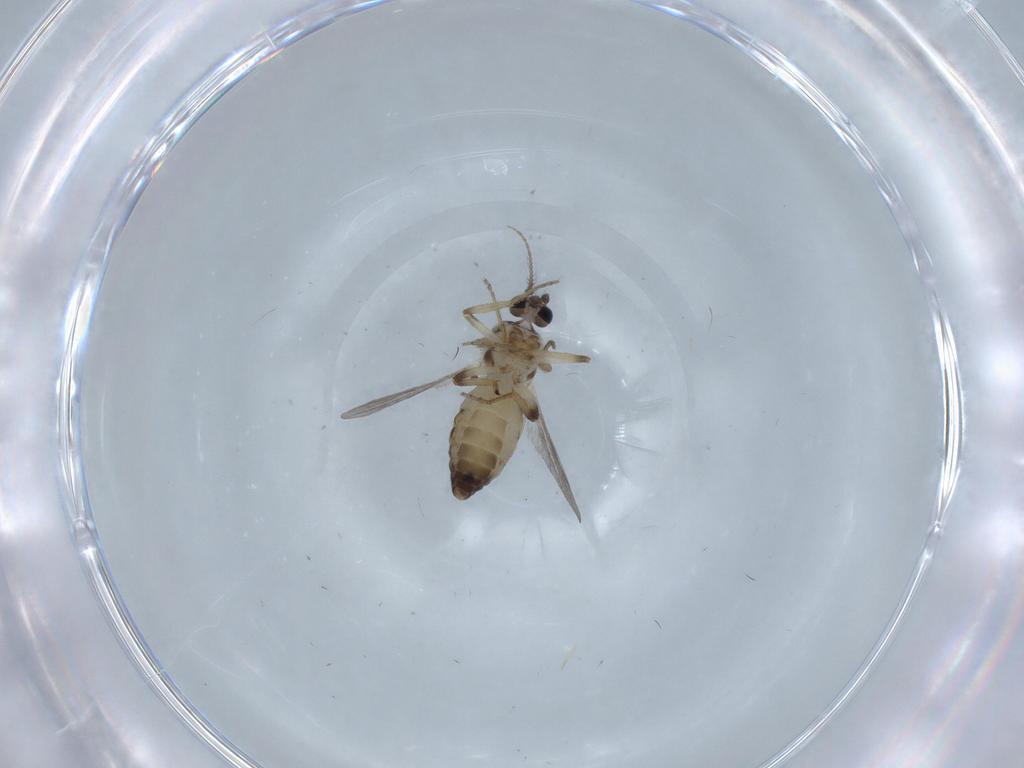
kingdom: Animalia
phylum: Arthropoda
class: Insecta
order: Diptera
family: Ceratopogonidae
